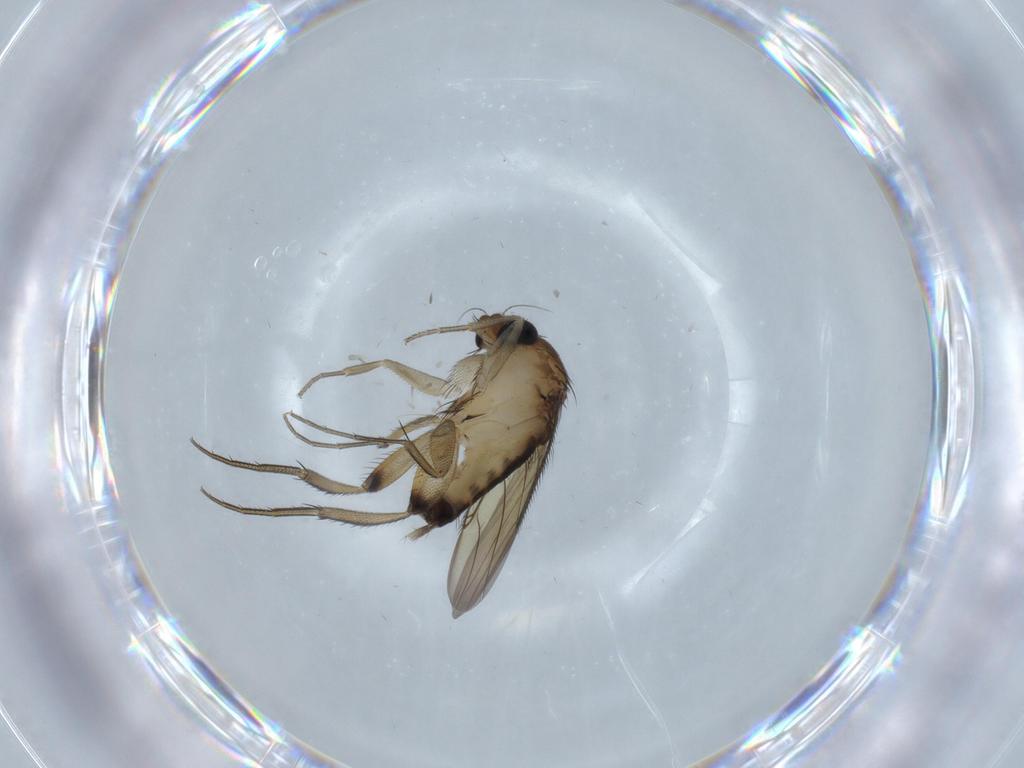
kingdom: Animalia
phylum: Arthropoda
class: Insecta
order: Diptera
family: Phoridae
